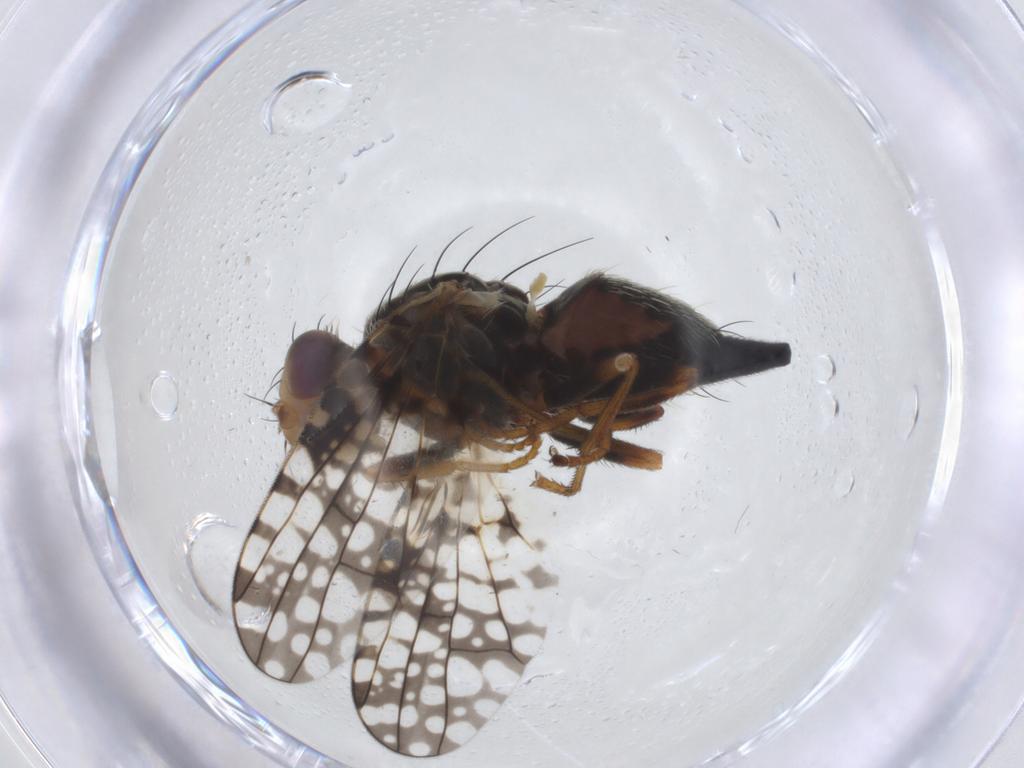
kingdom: Animalia
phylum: Arthropoda
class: Insecta
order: Diptera
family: Tephritidae
